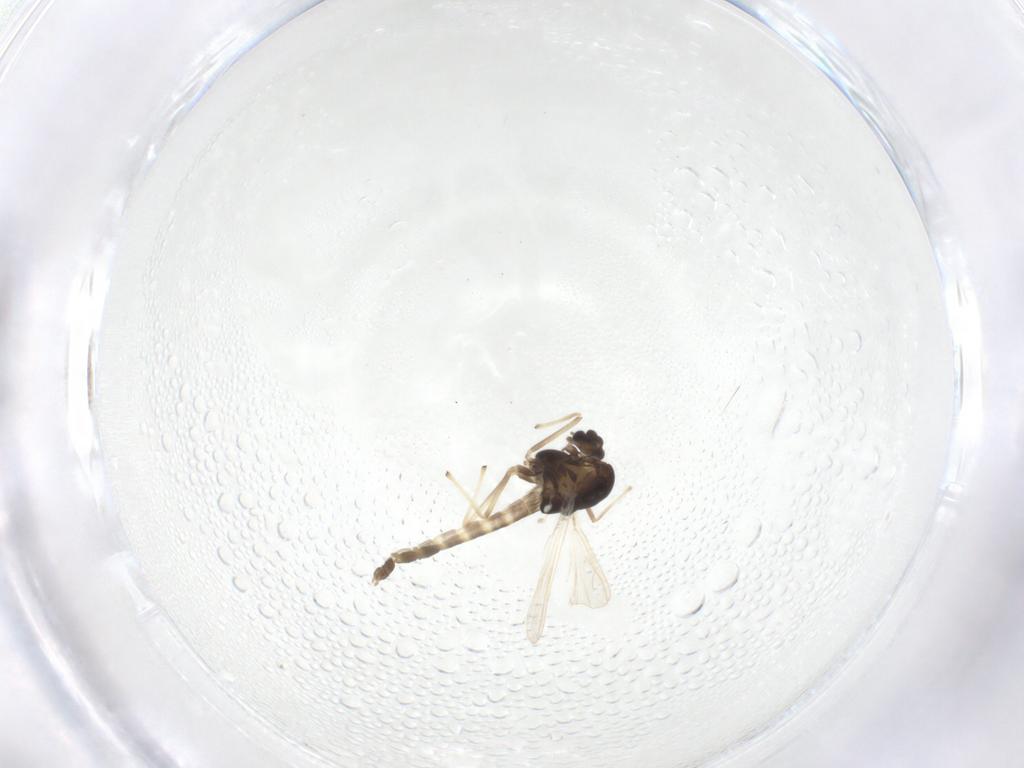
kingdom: Animalia
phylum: Arthropoda
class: Insecta
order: Diptera
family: Chironomidae
